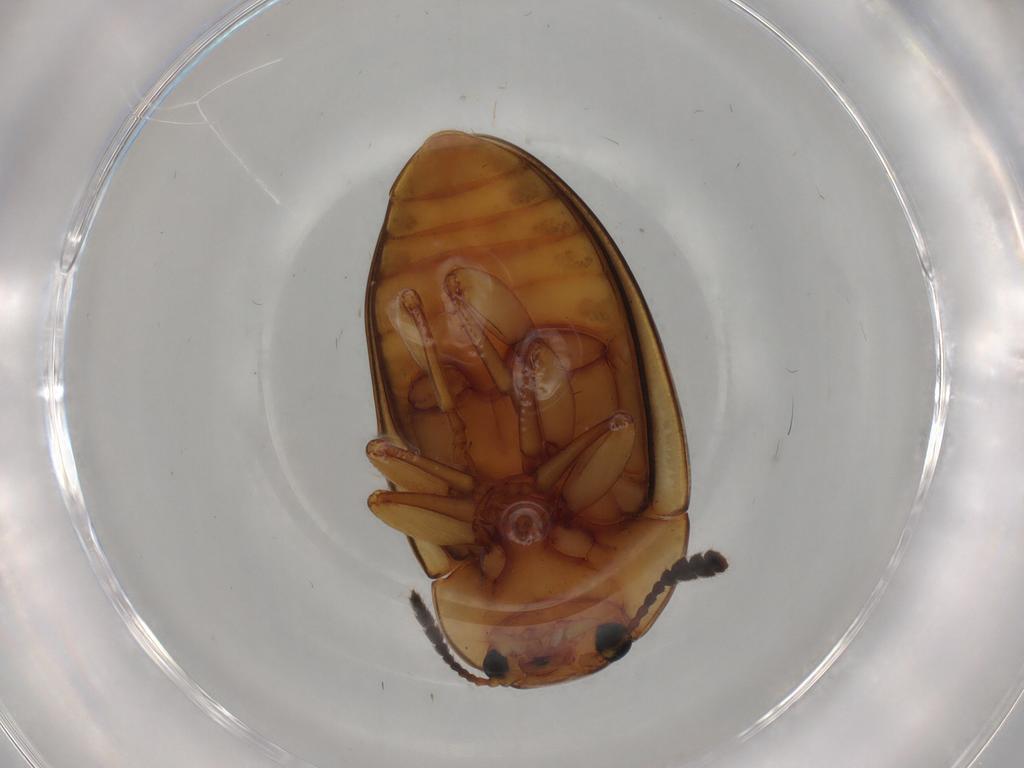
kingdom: Animalia
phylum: Arthropoda
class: Insecta
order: Coleoptera
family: Erotylidae
